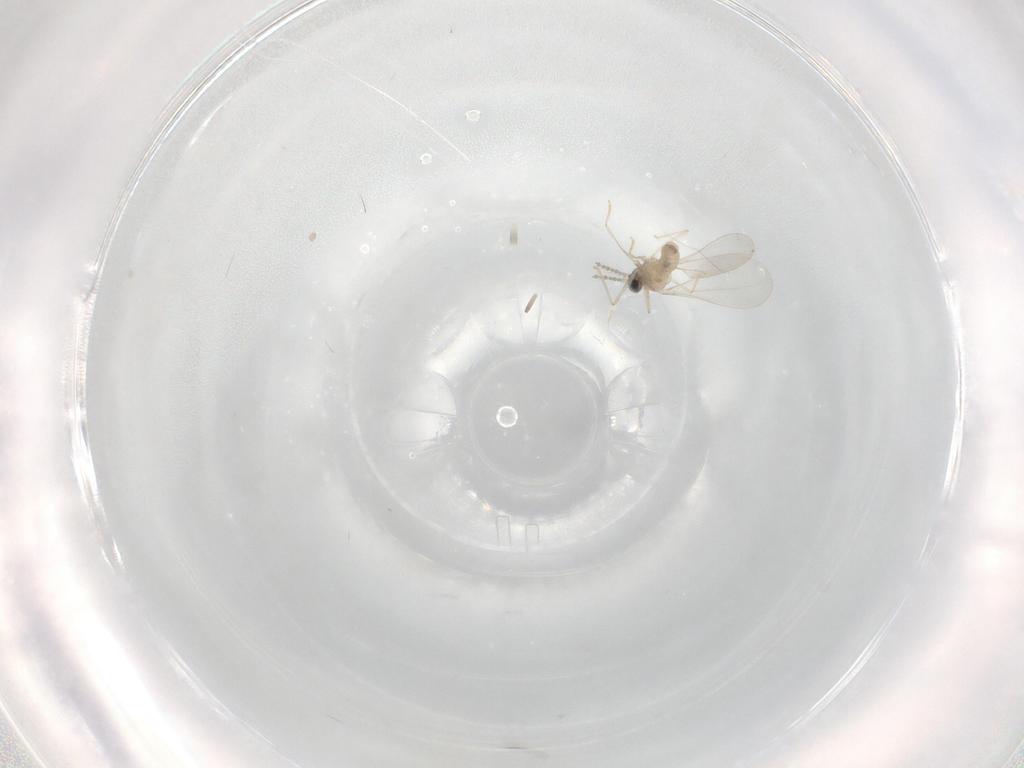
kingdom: Animalia
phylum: Arthropoda
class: Insecta
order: Diptera
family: Cecidomyiidae
